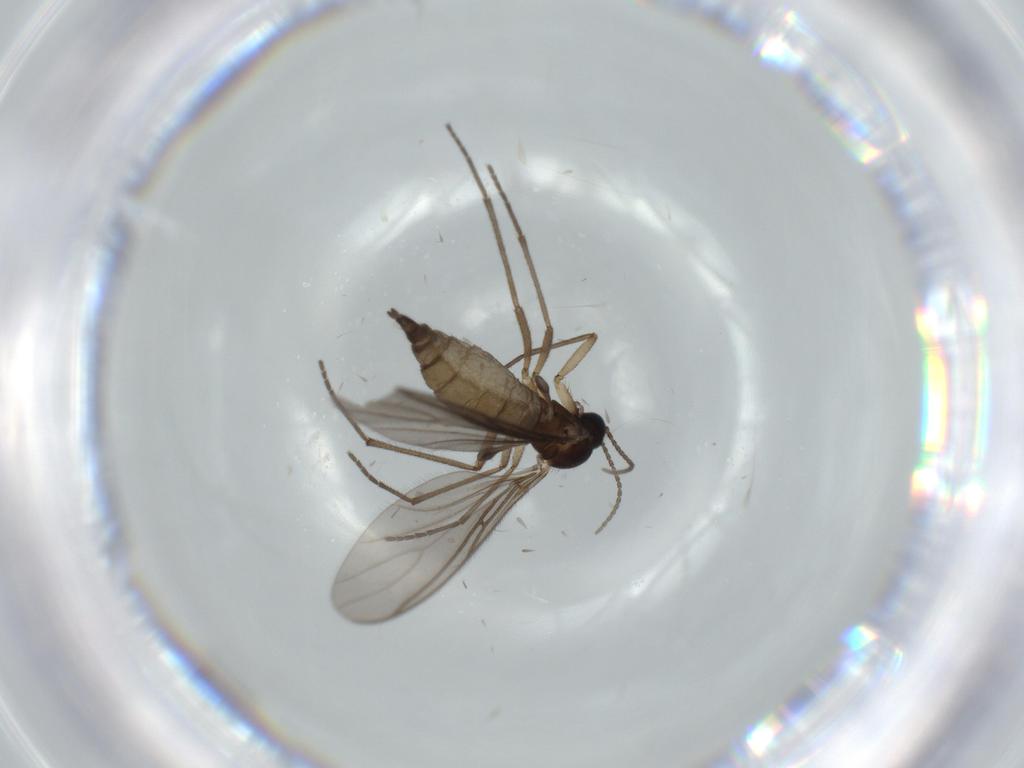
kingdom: Animalia
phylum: Arthropoda
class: Insecta
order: Diptera
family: Sciaridae
